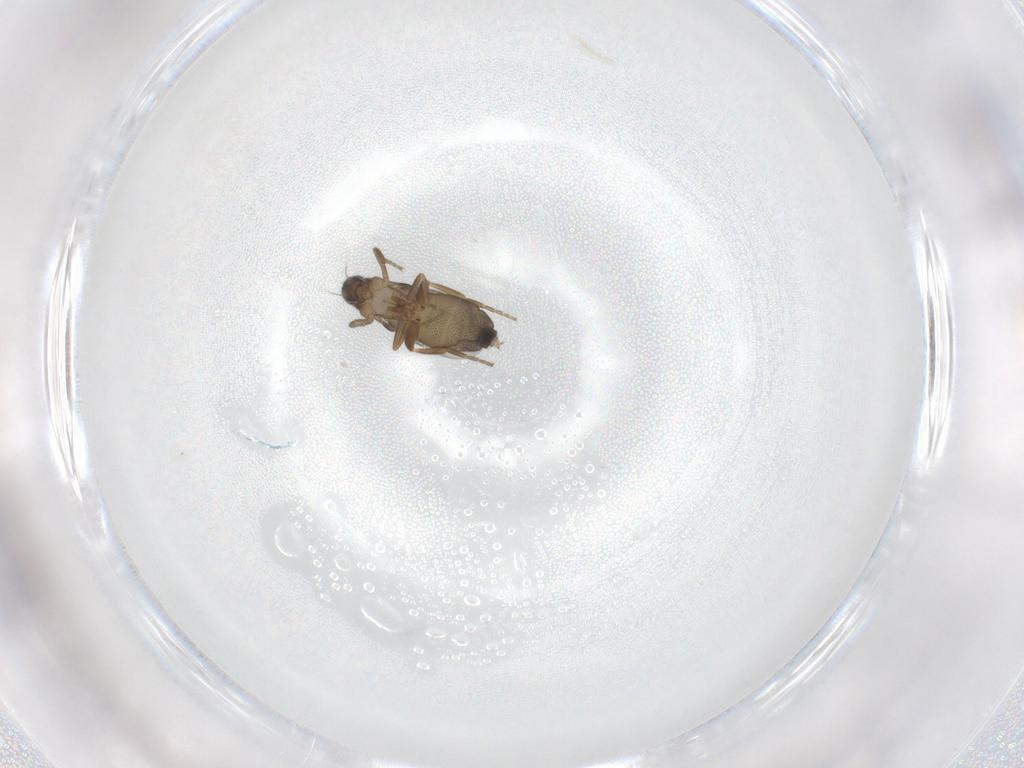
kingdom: Animalia
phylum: Arthropoda
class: Insecta
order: Diptera
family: Phoridae
